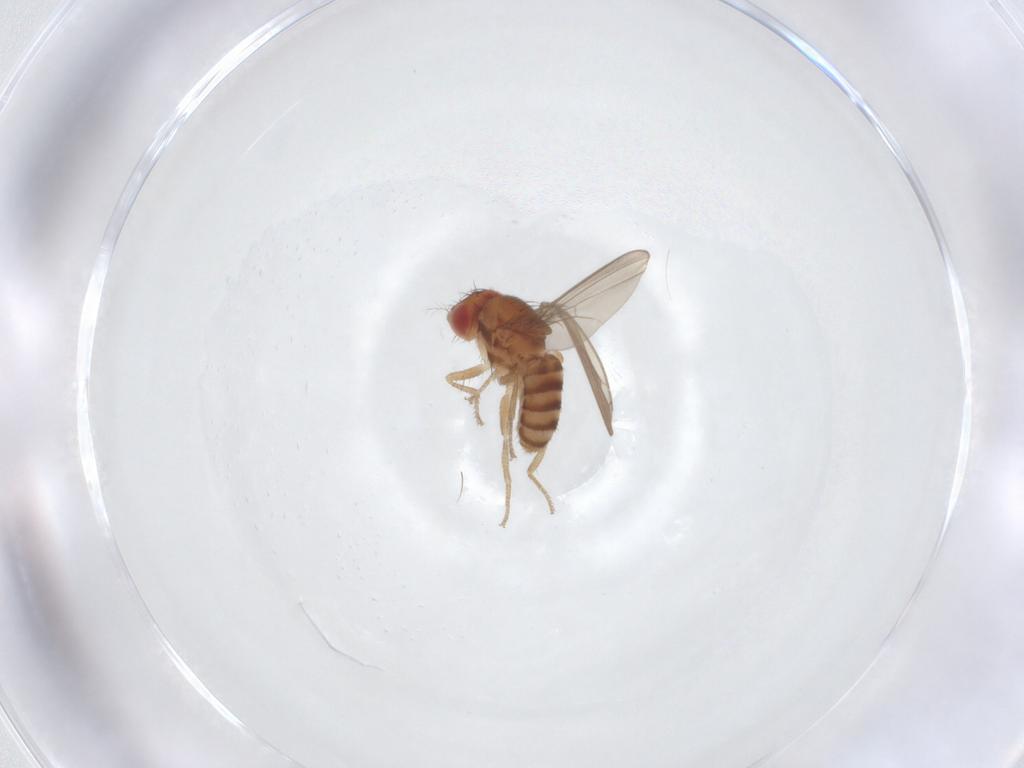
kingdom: Animalia
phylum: Arthropoda
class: Insecta
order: Diptera
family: Ephydridae
